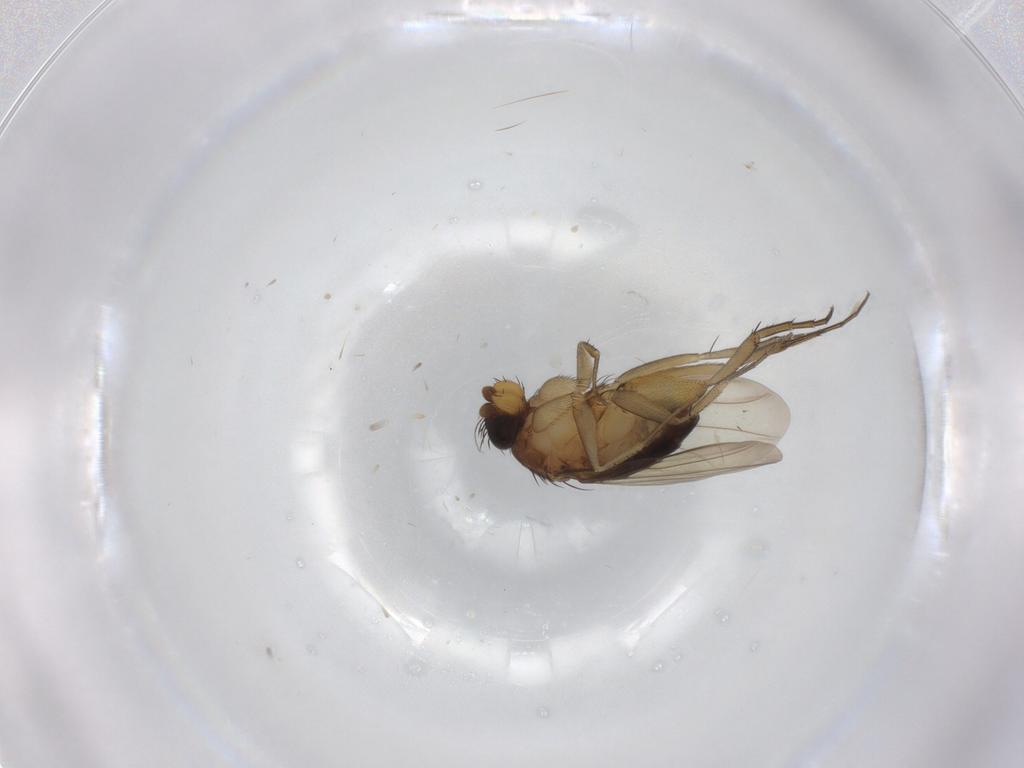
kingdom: Animalia
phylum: Arthropoda
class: Insecta
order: Diptera
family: Phoridae
